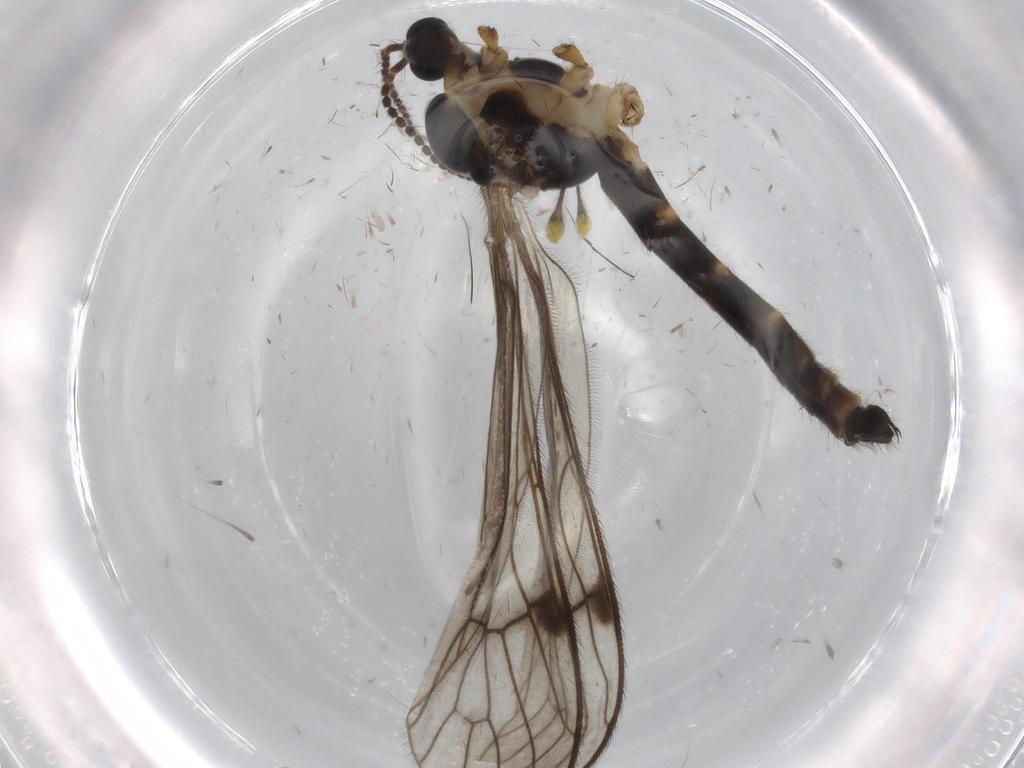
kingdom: Animalia
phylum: Arthropoda
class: Insecta
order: Diptera
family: Ceratopogonidae
